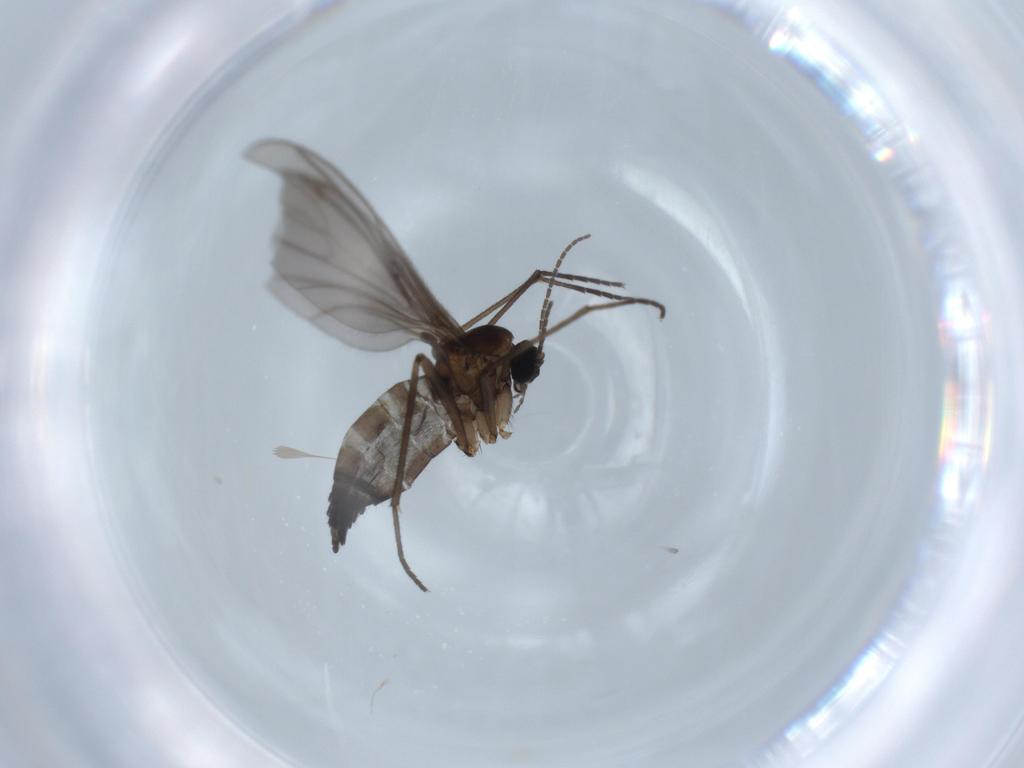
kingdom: Animalia
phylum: Arthropoda
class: Insecta
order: Diptera
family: Sciaridae
